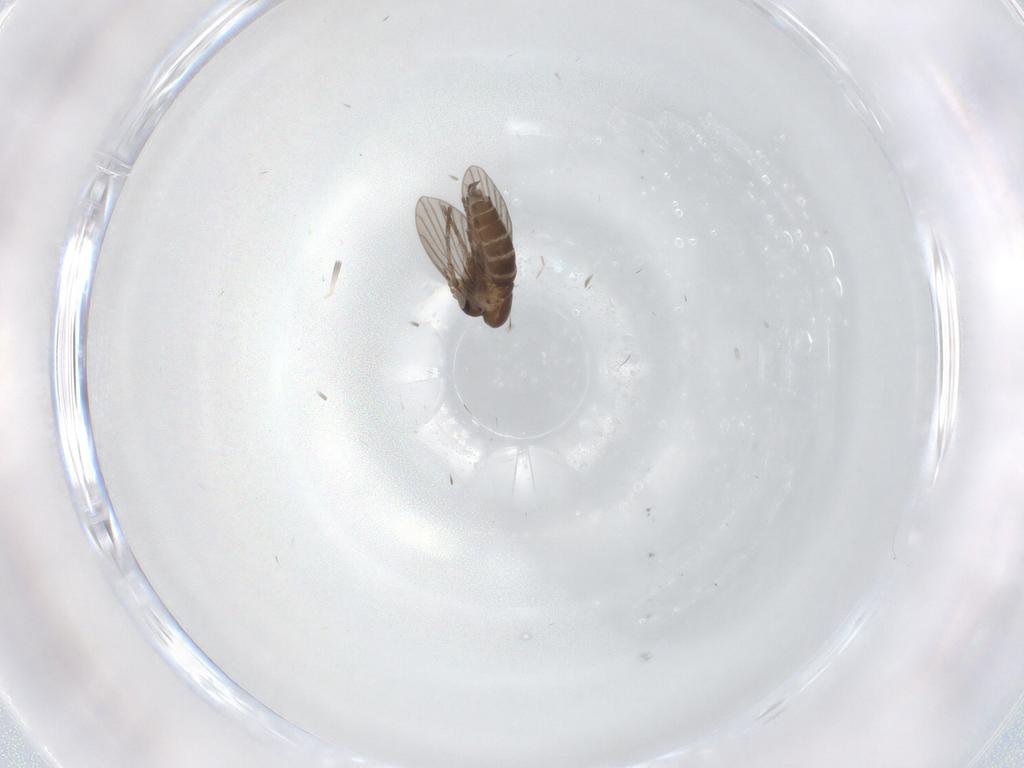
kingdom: Animalia
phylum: Arthropoda
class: Insecta
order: Diptera
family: Cecidomyiidae
